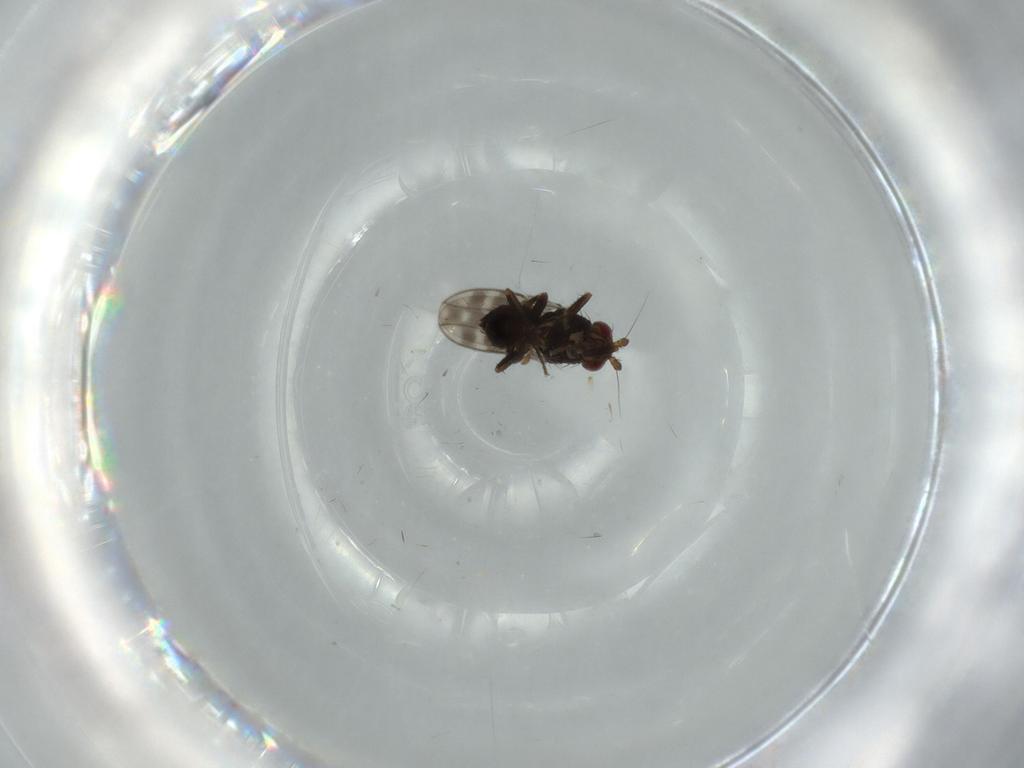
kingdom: Animalia
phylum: Arthropoda
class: Insecta
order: Diptera
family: Sphaeroceridae
